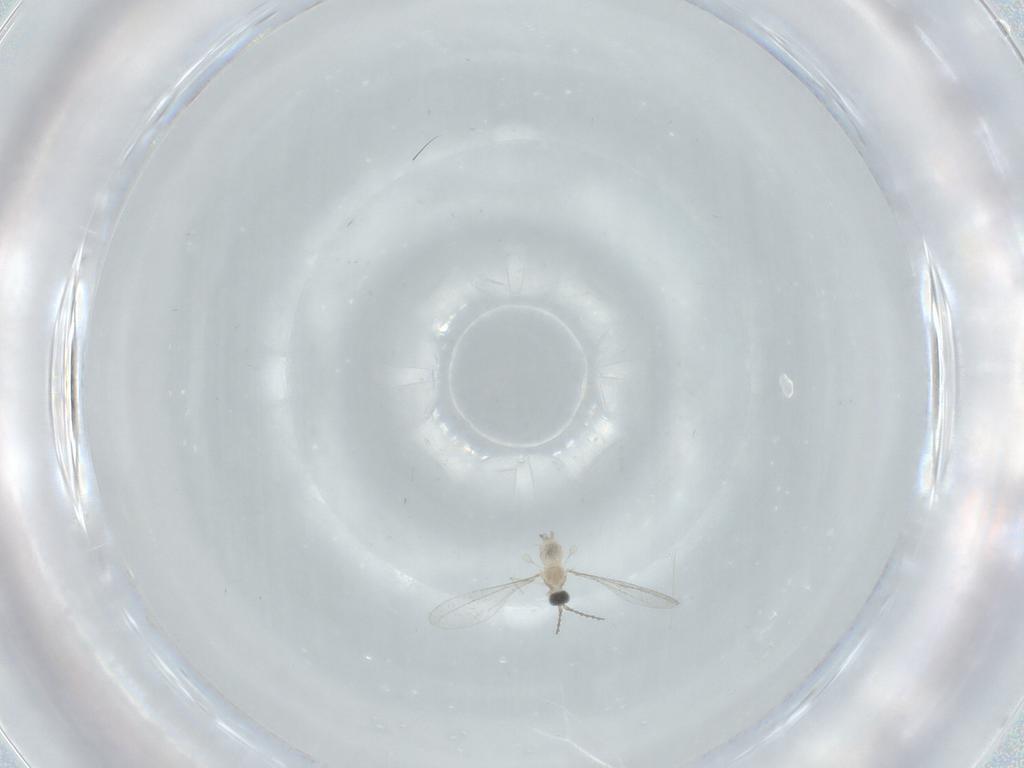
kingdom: Animalia
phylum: Arthropoda
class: Insecta
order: Diptera
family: Cecidomyiidae
